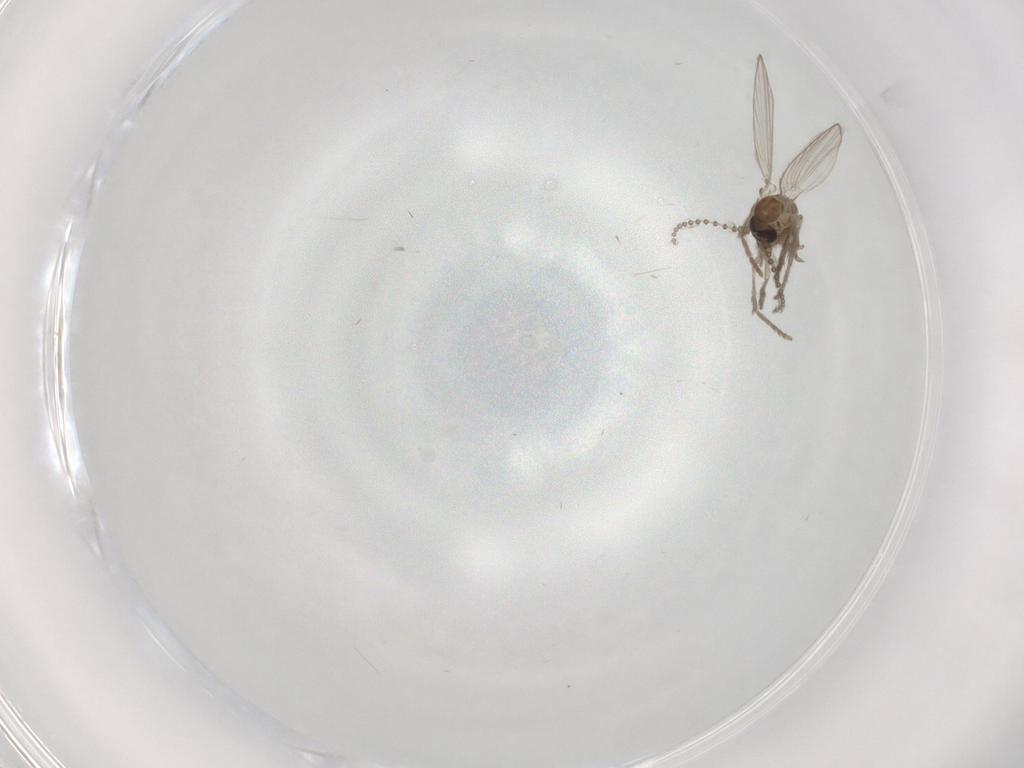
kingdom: Animalia
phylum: Arthropoda
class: Insecta
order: Diptera
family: Psychodidae
